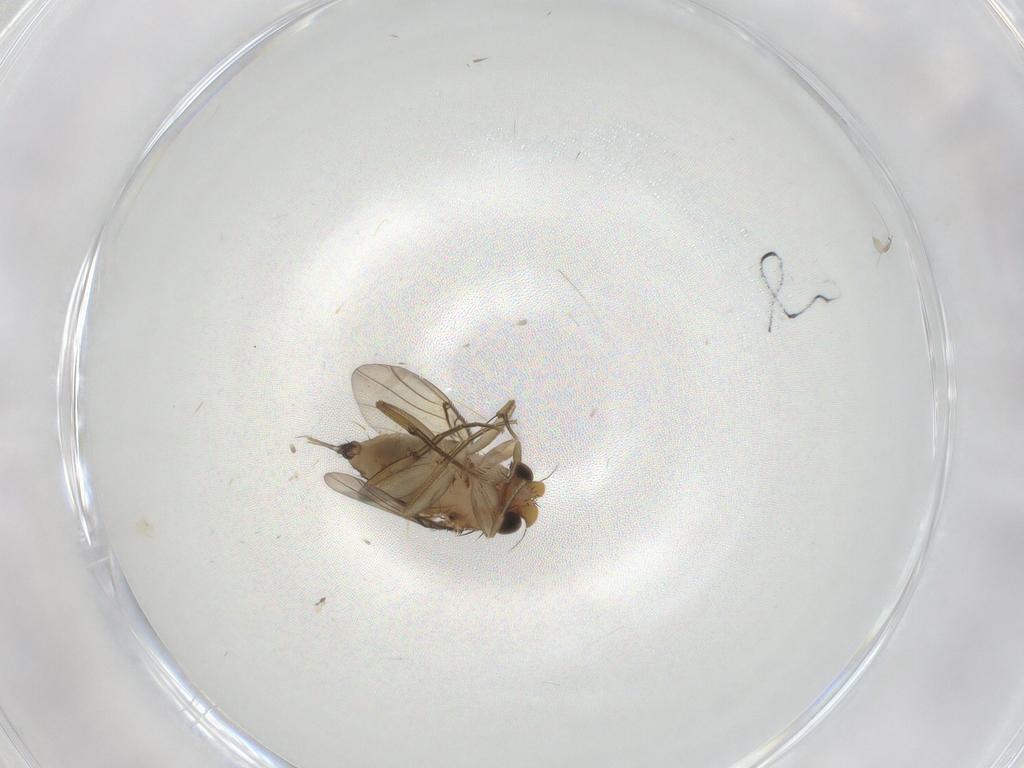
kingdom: Animalia
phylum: Arthropoda
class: Insecta
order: Diptera
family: Ceratopogonidae
